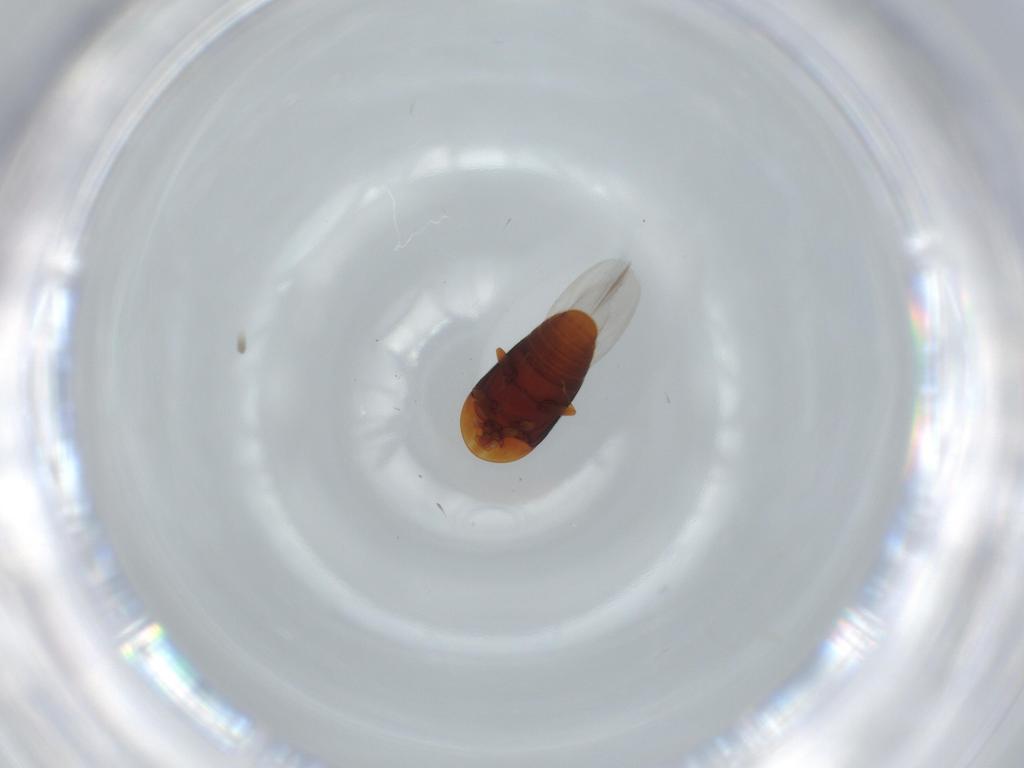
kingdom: Animalia
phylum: Arthropoda
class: Insecta
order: Coleoptera
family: Corylophidae
